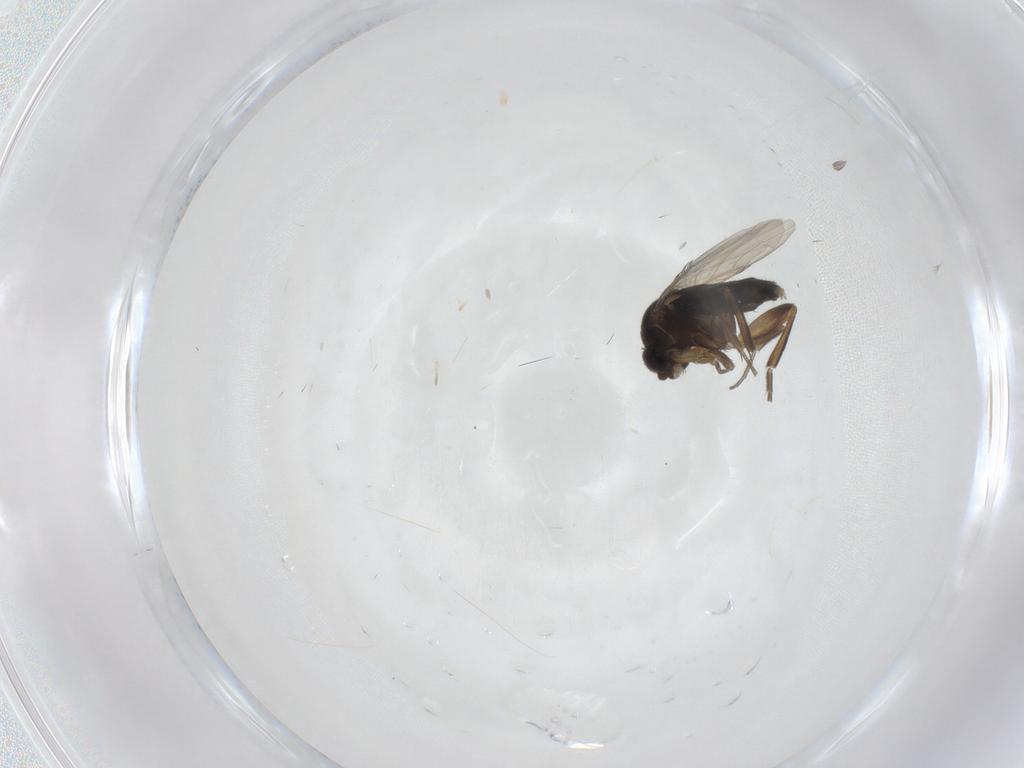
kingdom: Animalia
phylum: Arthropoda
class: Insecta
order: Diptera
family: Phoridae
